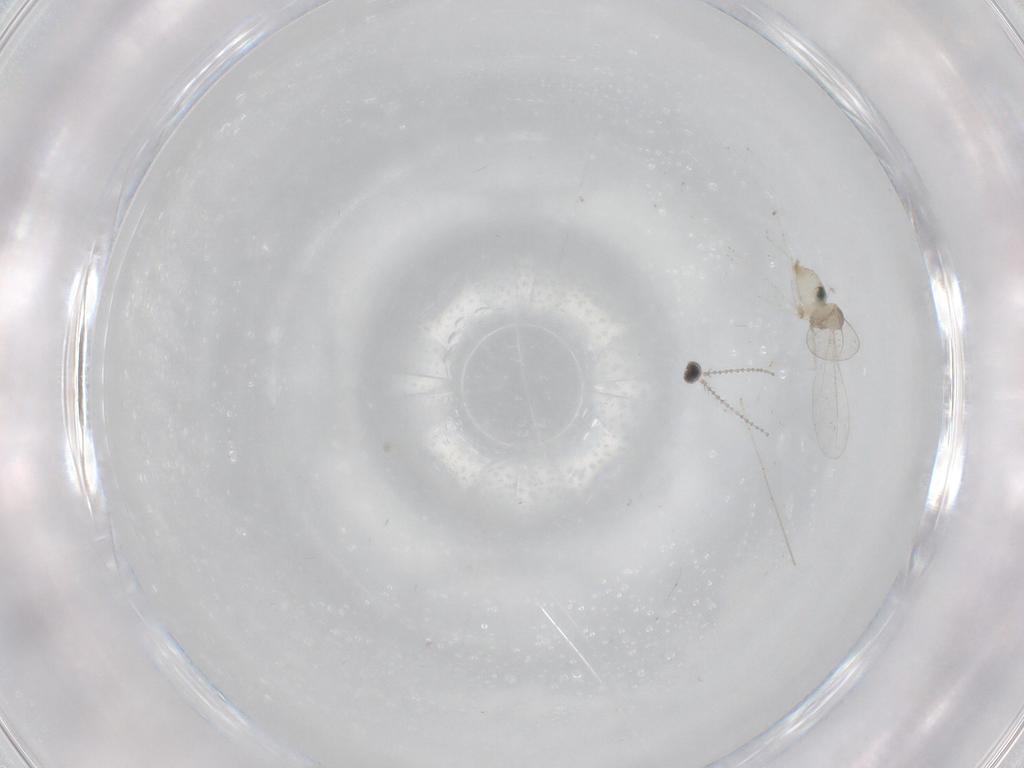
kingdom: Animalia
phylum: Arthropoda
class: Insecta
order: Diptera
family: Cecidomyiidae
